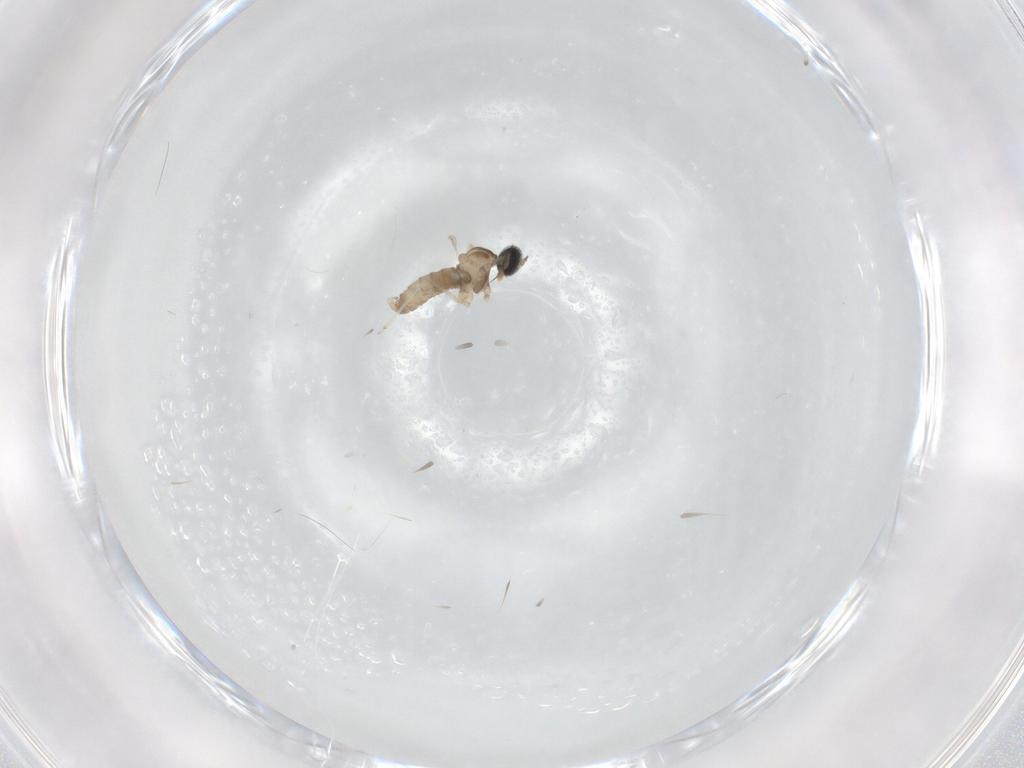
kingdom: Animalia
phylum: Arthropoda
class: Insecta
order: Diptera
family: Cecidomyiidae
